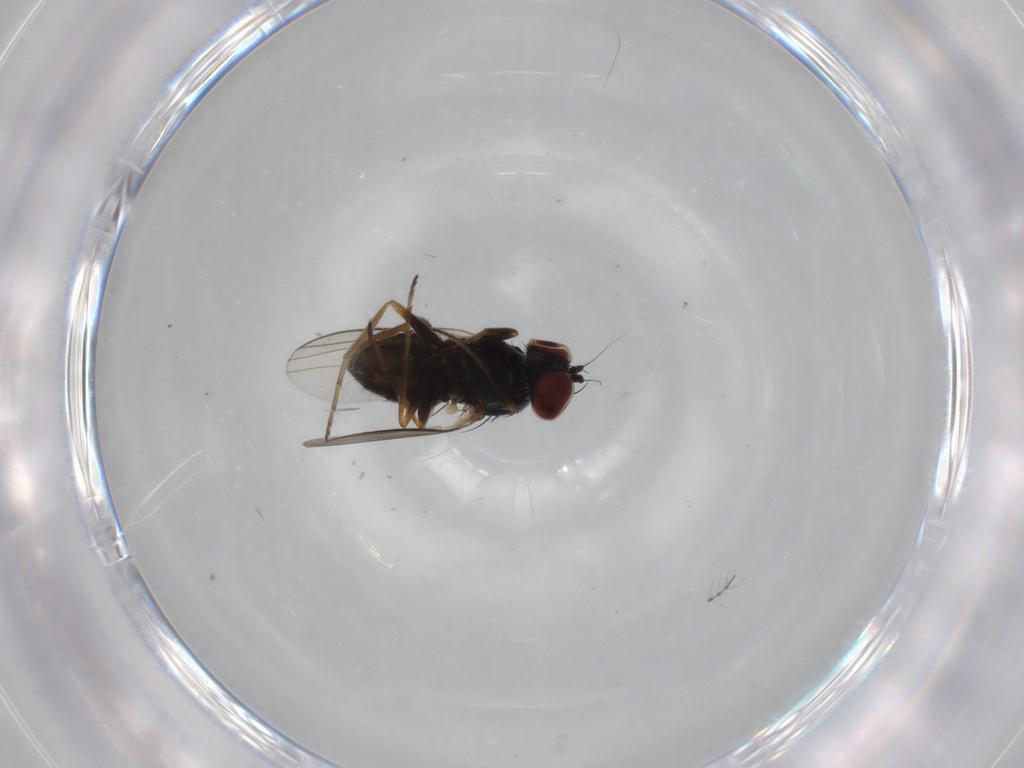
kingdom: Animalia
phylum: Arthropoda
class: Insecta
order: Diptera
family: Dolichopodidae
